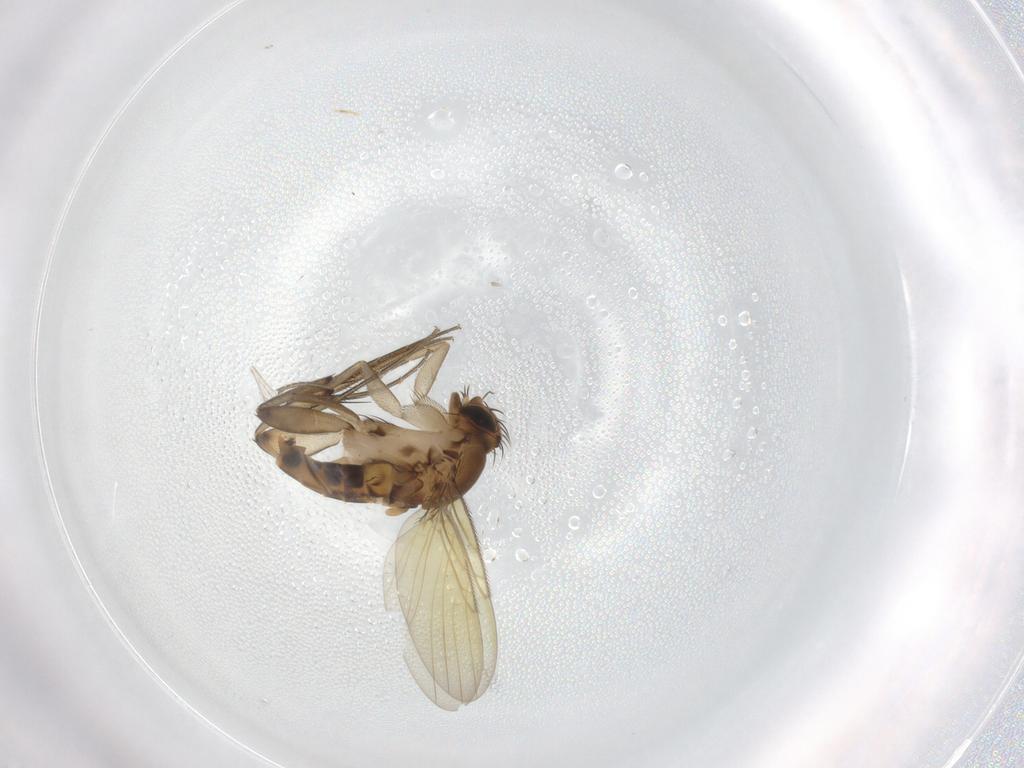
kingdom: Animalia
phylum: Arthropoda
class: Insecta
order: Diptera
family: Phoridae
